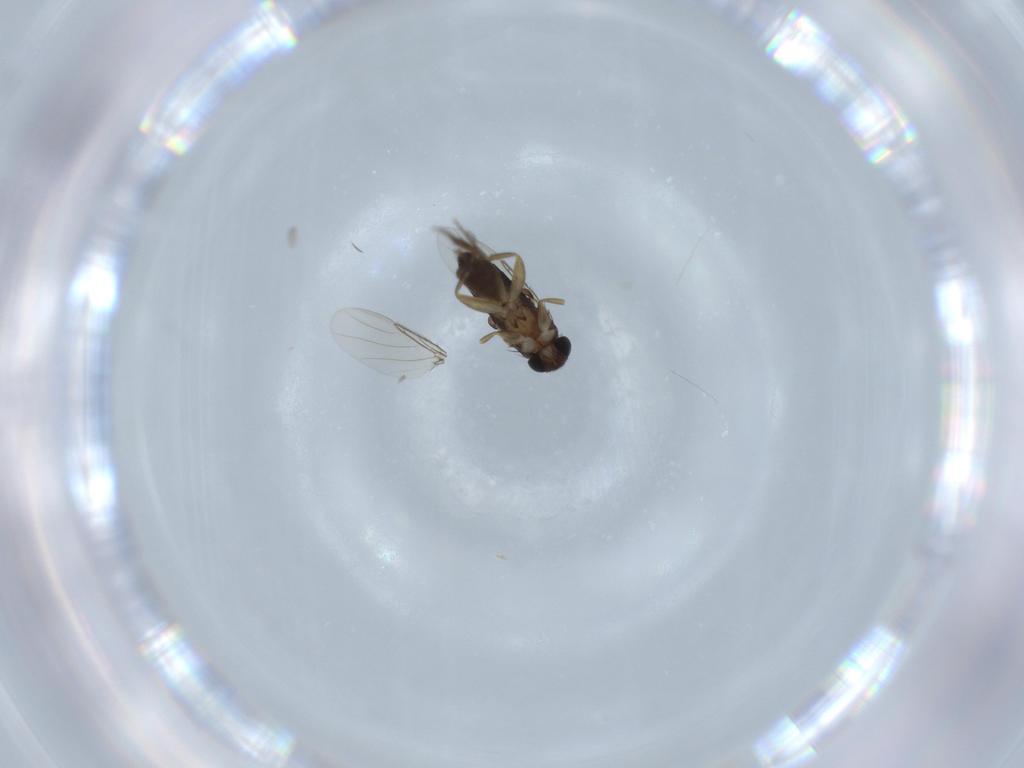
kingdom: Animalia
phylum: Arthropoda
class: Insecta
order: Diptera
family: Phoridae
